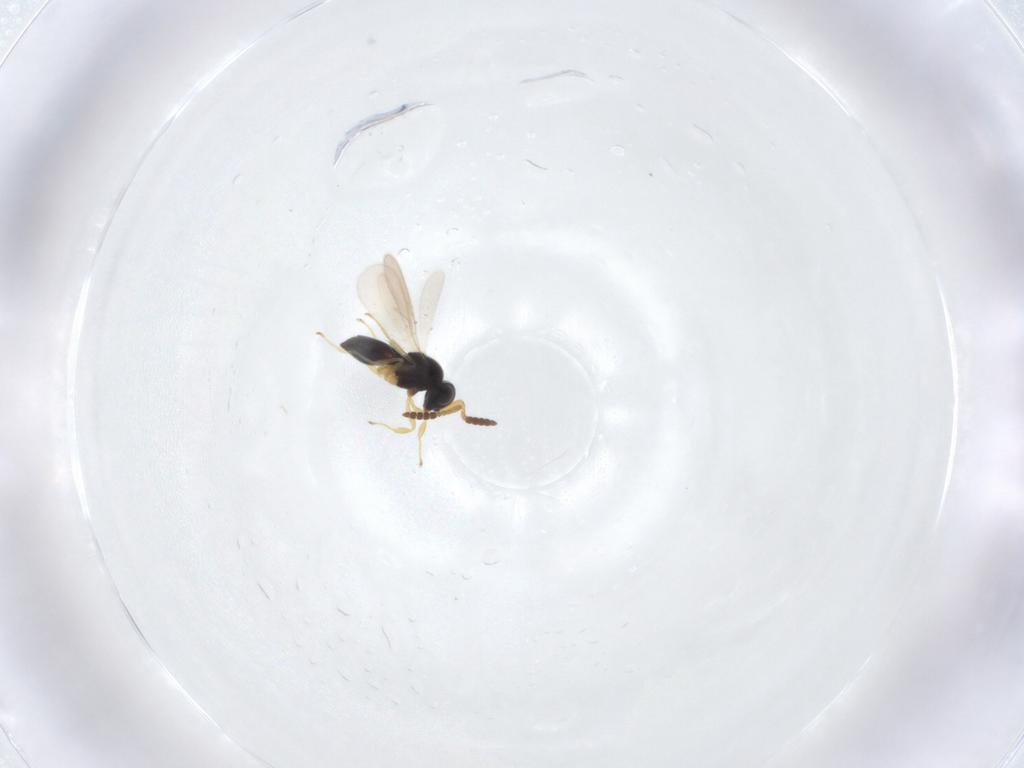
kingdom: Animalia
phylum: Arthropoda
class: Insecta
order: Hymenoptera
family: Scelionidae
